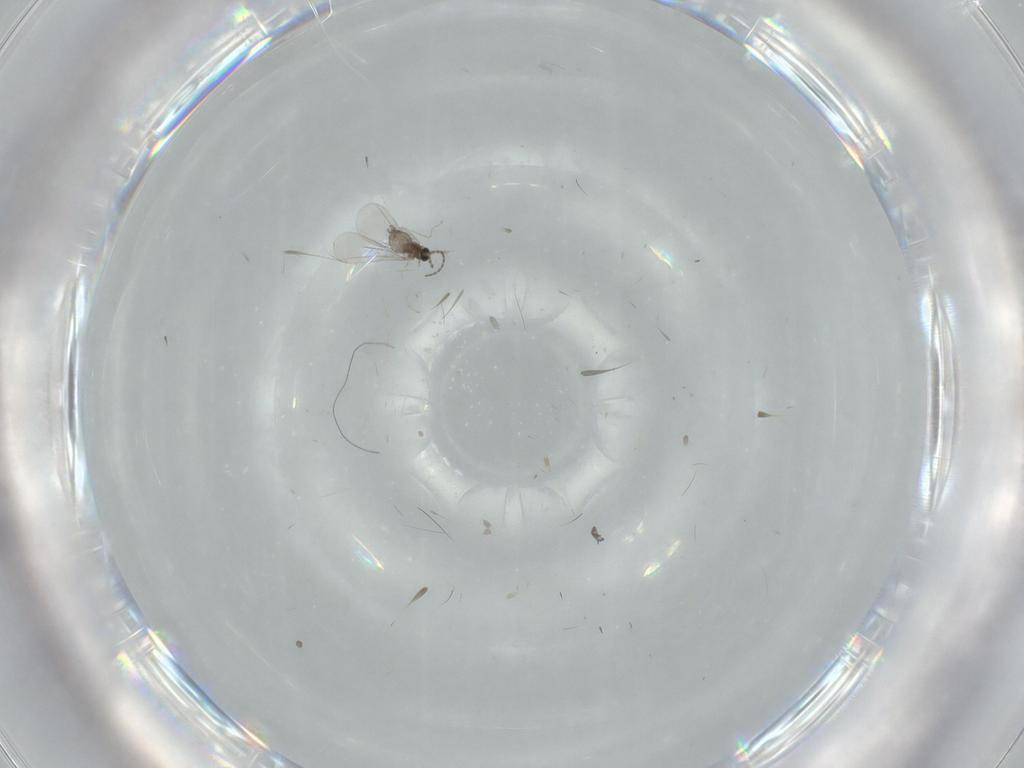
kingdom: Animalia
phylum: Arthropoda
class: Insecta
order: Diptera
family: Cecidomyiidae
